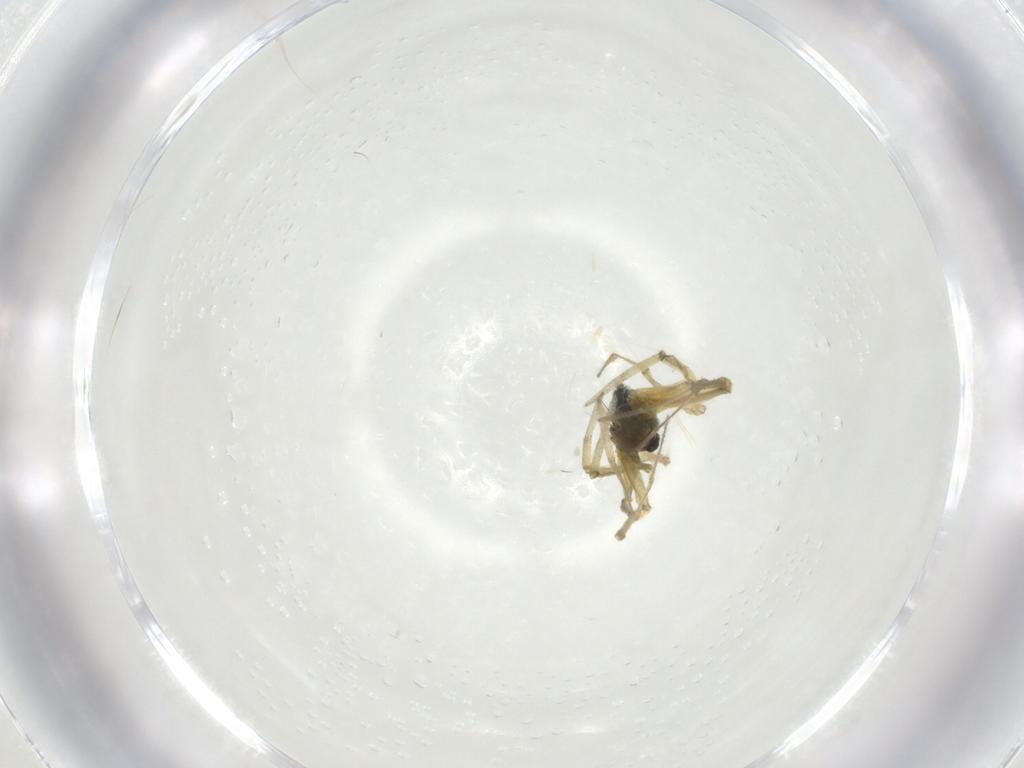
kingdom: Animalia
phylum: Arthropoda
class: Arachnida
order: Araneae
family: Linyphiidae
